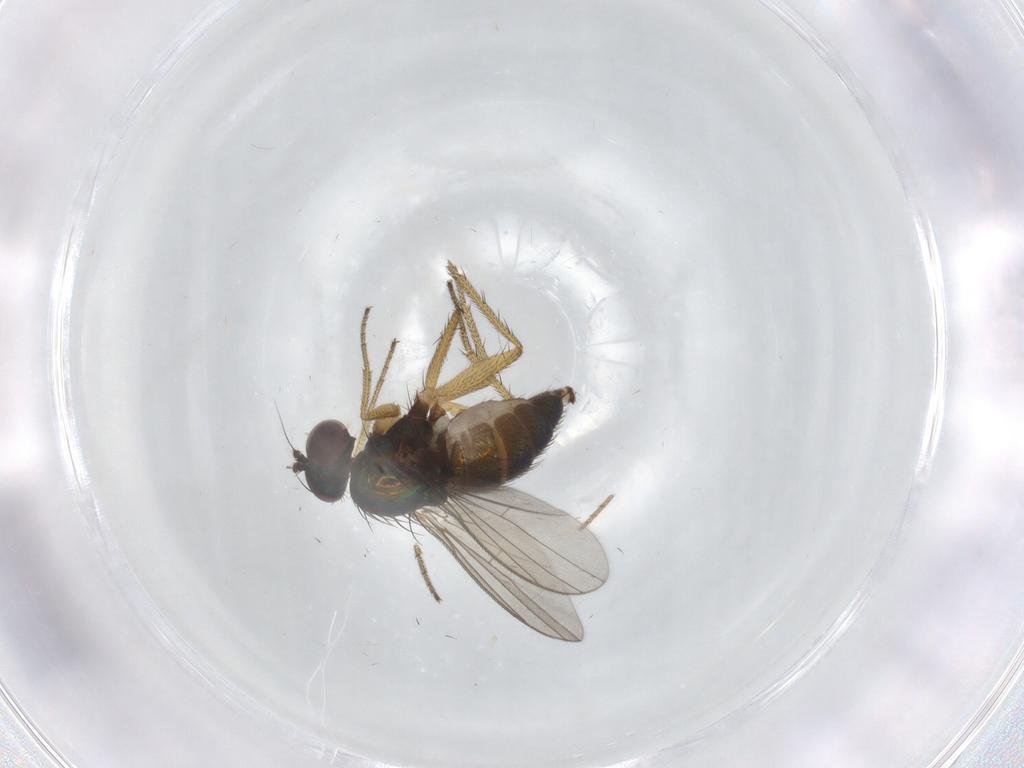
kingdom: Animalia
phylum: Arthropoda
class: Insecta
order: Diptera
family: Dolichopodidae
